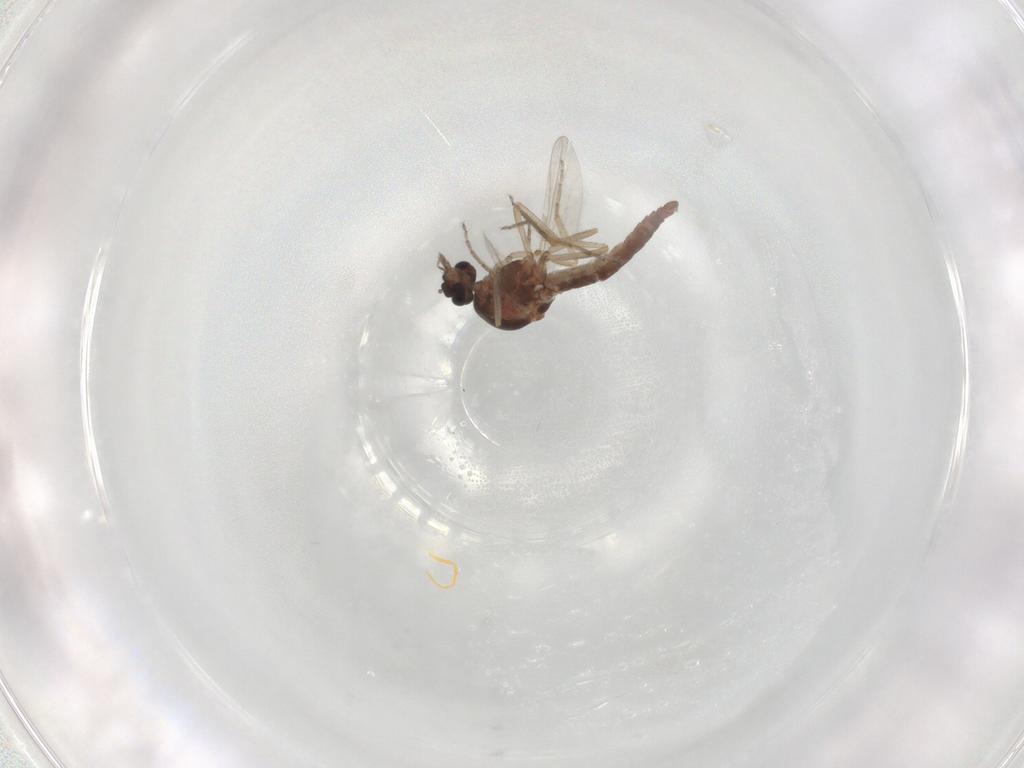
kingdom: Animalia
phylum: Arthropoda
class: Insecta
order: Diptera
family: Ceratopogonidae
